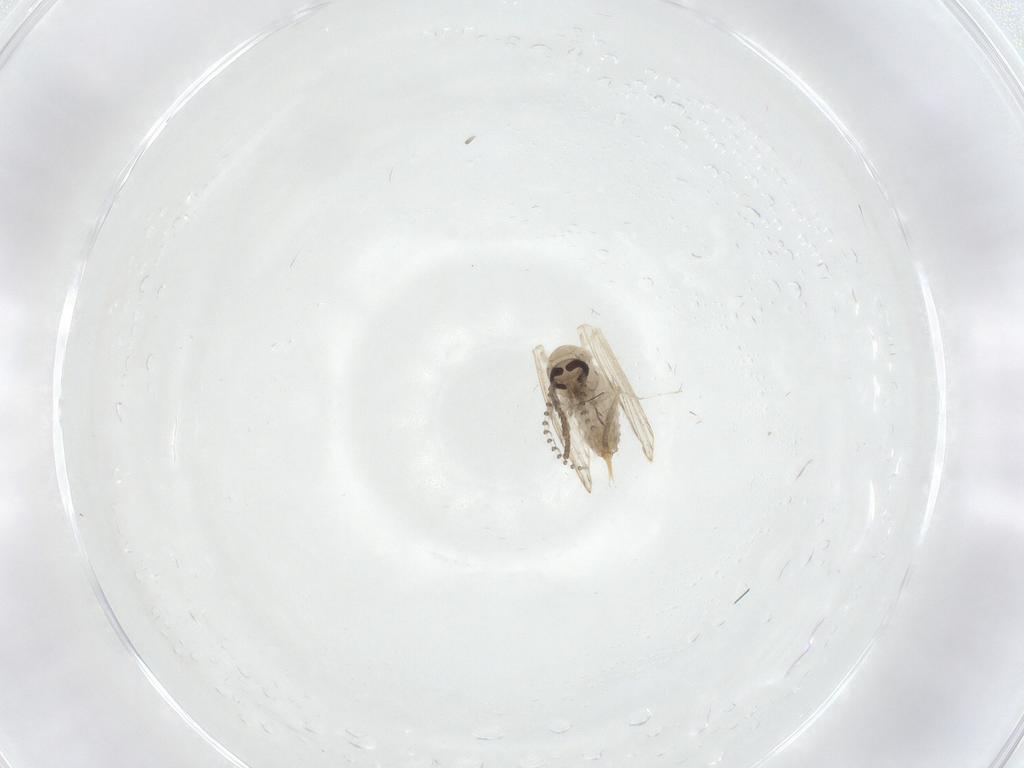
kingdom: Animalia
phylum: Arthropoda
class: Insecta
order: Diptera
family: Psychodidae
